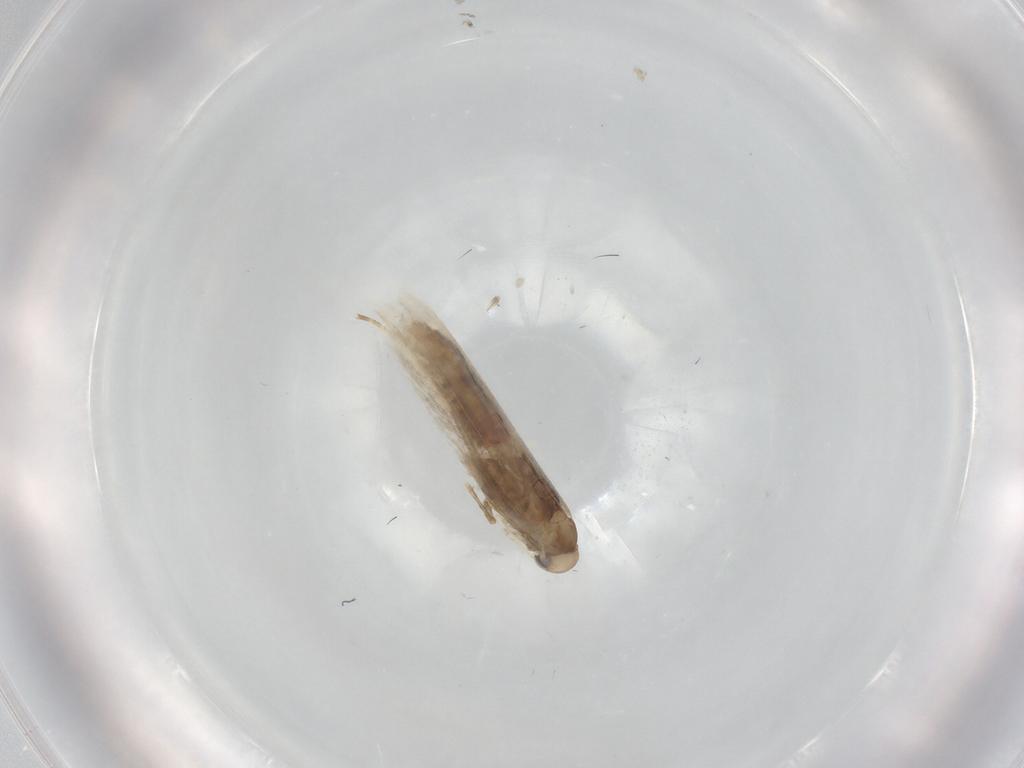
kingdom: Animalia
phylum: Arthropoda
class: Insecta
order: Lepidoptera
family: Gracillariidae
